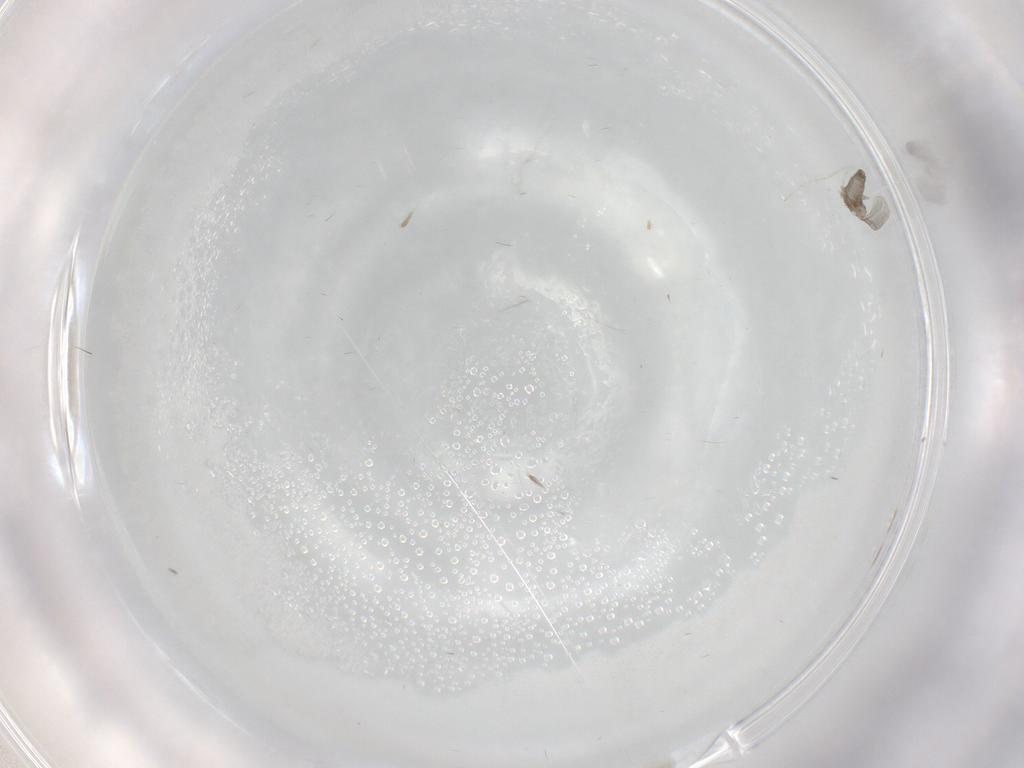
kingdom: Animalia
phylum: Arthropoda
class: Insecta
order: Diptera
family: Cecidomyiidae
